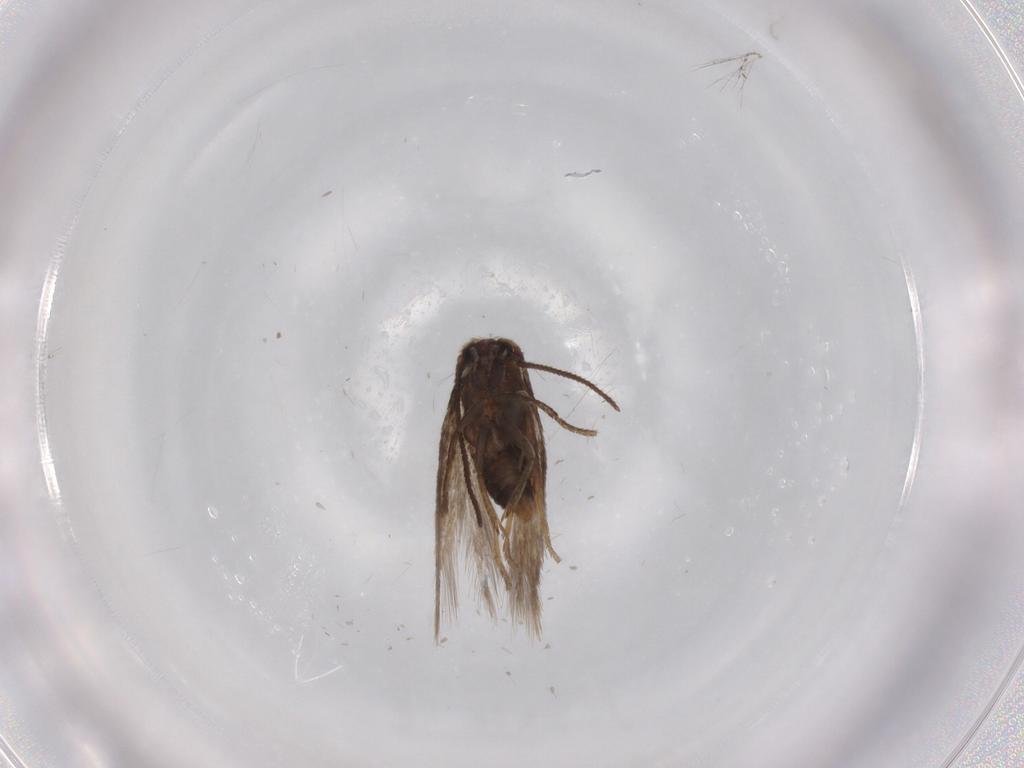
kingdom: Animalia
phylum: Arthropoda
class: Insecta
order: Lepidoptera
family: Nepticulidae
